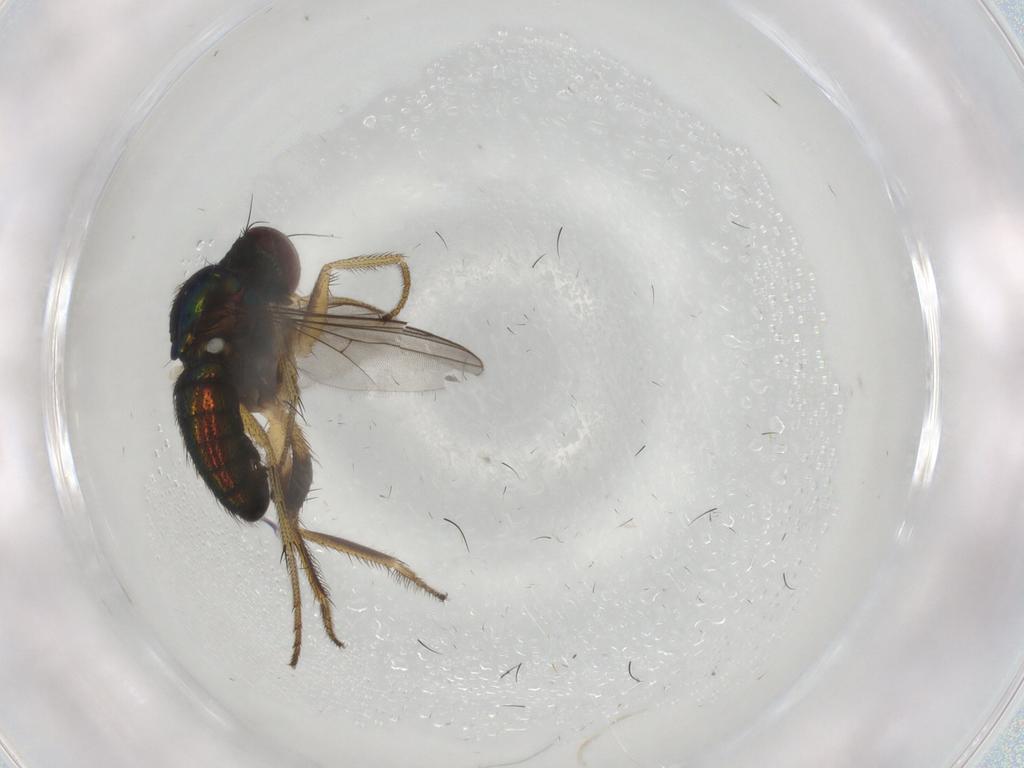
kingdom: Animalia
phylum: Arthropoda
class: Insecta
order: Diptera
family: Dolichopodidae
